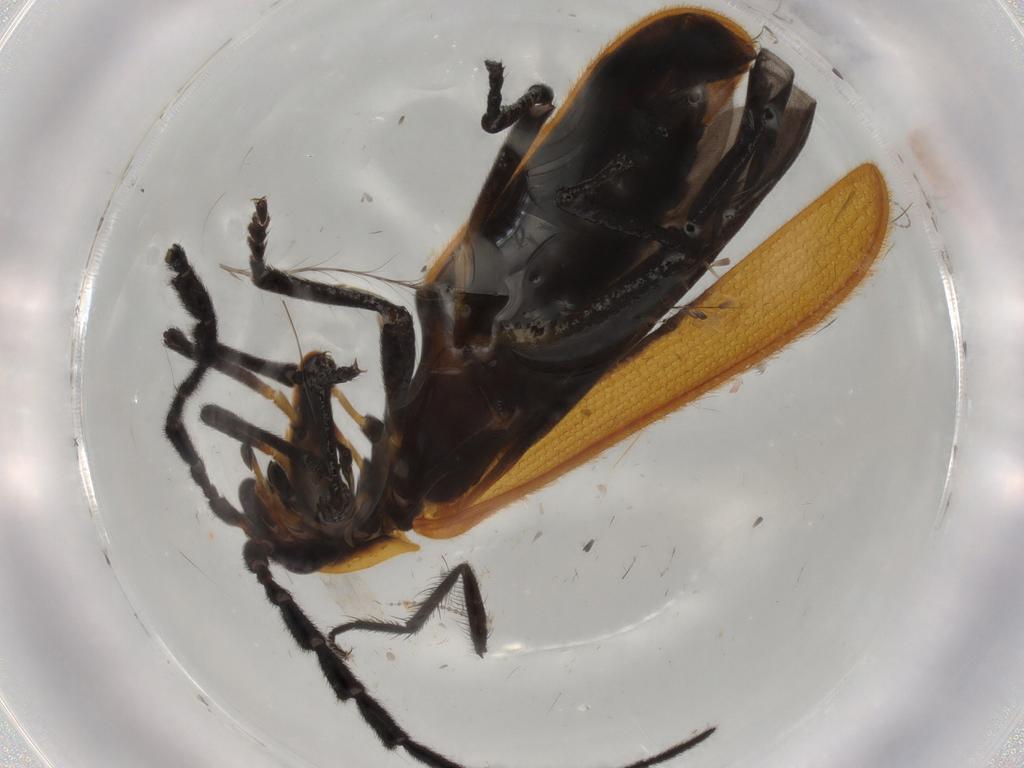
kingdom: Animalia
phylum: Arthropoda
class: Insecta
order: Coleoptera
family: Lycidae
